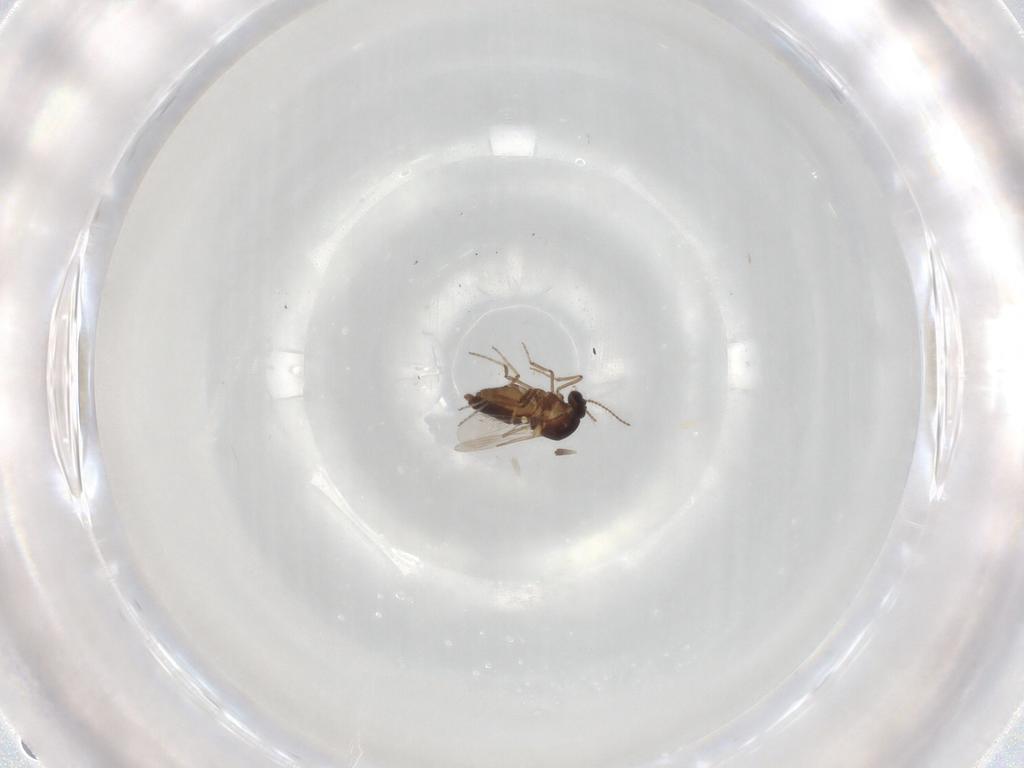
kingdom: Animalia
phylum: Arthropoda
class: Insecta
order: Diptera
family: Ceratopogonidae
